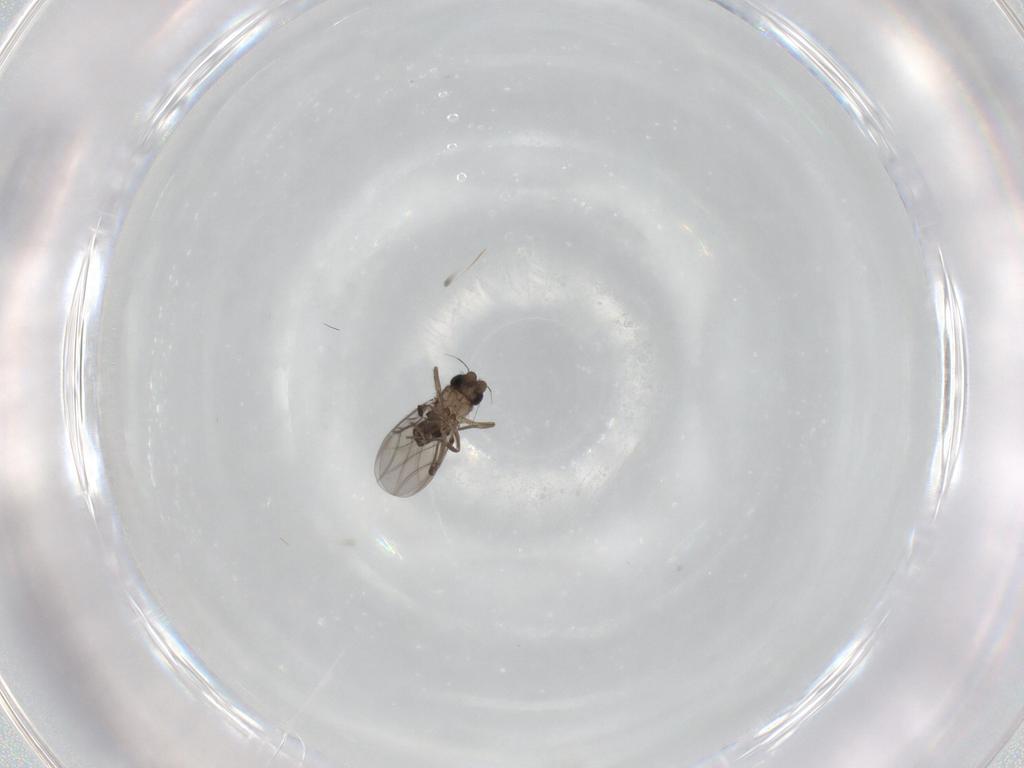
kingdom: Animalia
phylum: Arthropoda
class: Insecta
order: Diptera
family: Phoridae
